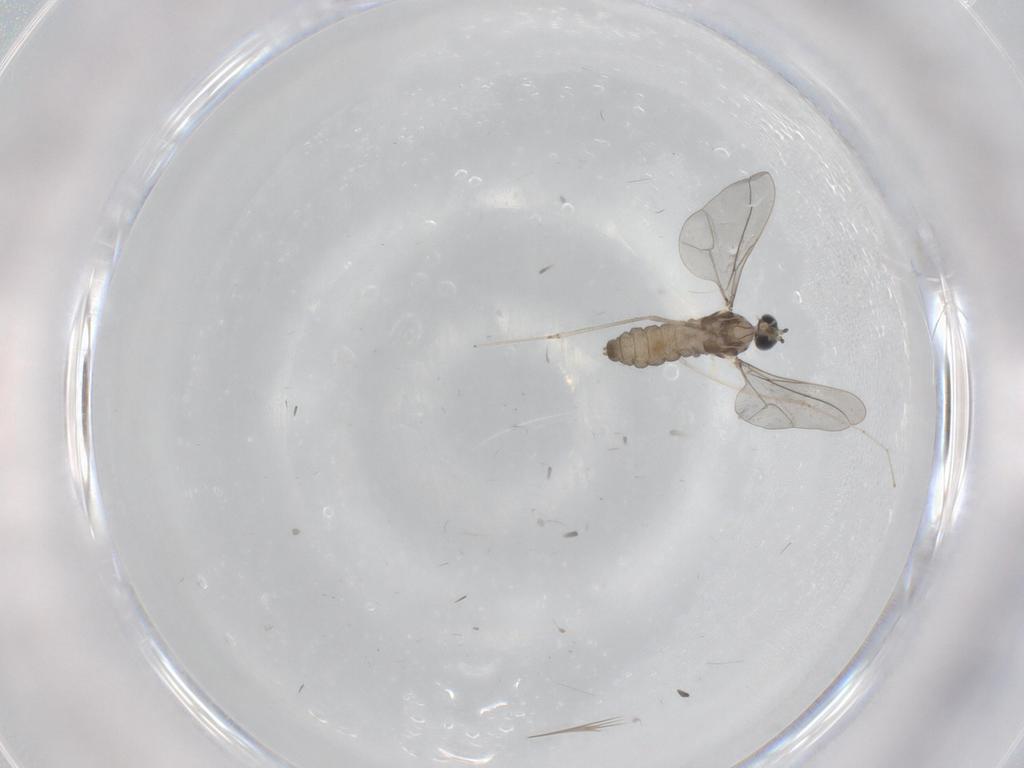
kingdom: Animalia
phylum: Arthropoda
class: Insecta
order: Diptera
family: Cecidomyiidae
